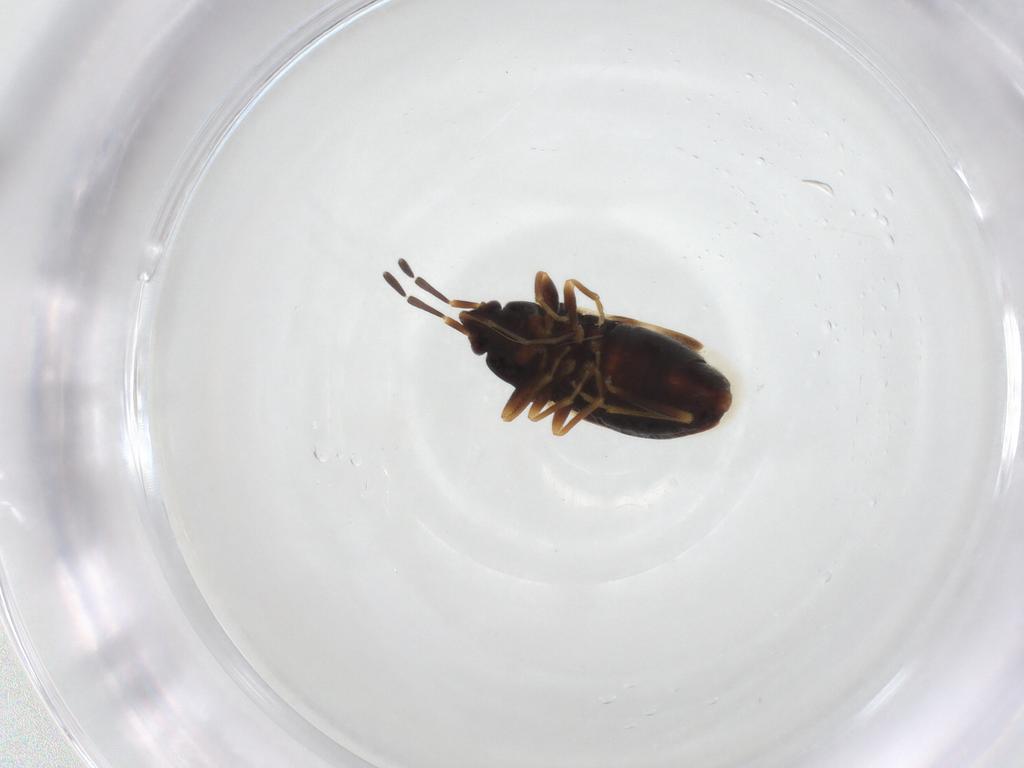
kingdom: Animalia
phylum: Arthropoda
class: Insecta
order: Hemiptera
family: Rhyparochromidae
